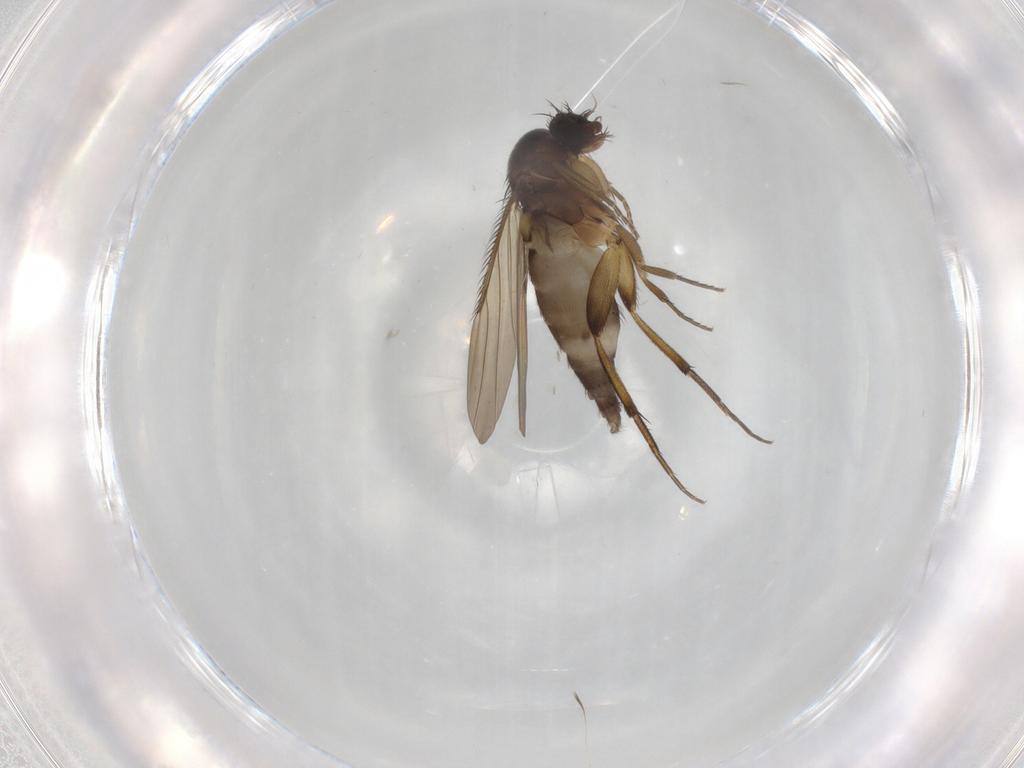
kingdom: Animalia
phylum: Arthropoda
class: Insecta
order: Diptera
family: Phoridae
